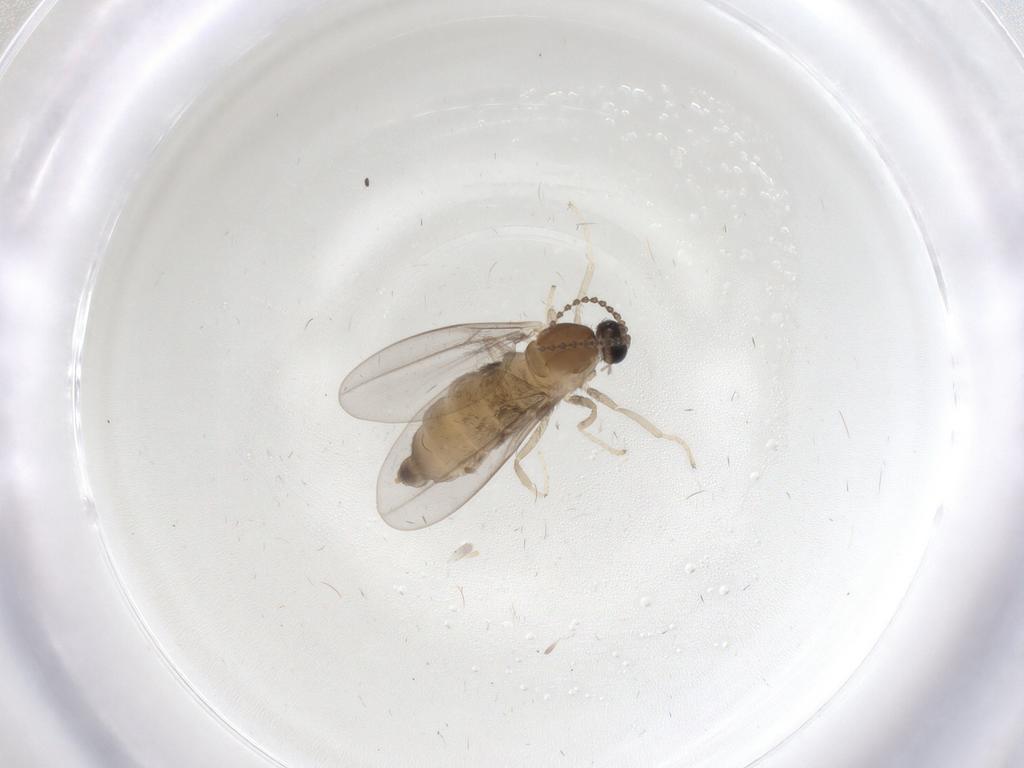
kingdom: Animalia
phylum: Arthropoda
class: Insecta
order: Diptera
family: Cecidomyiidae
